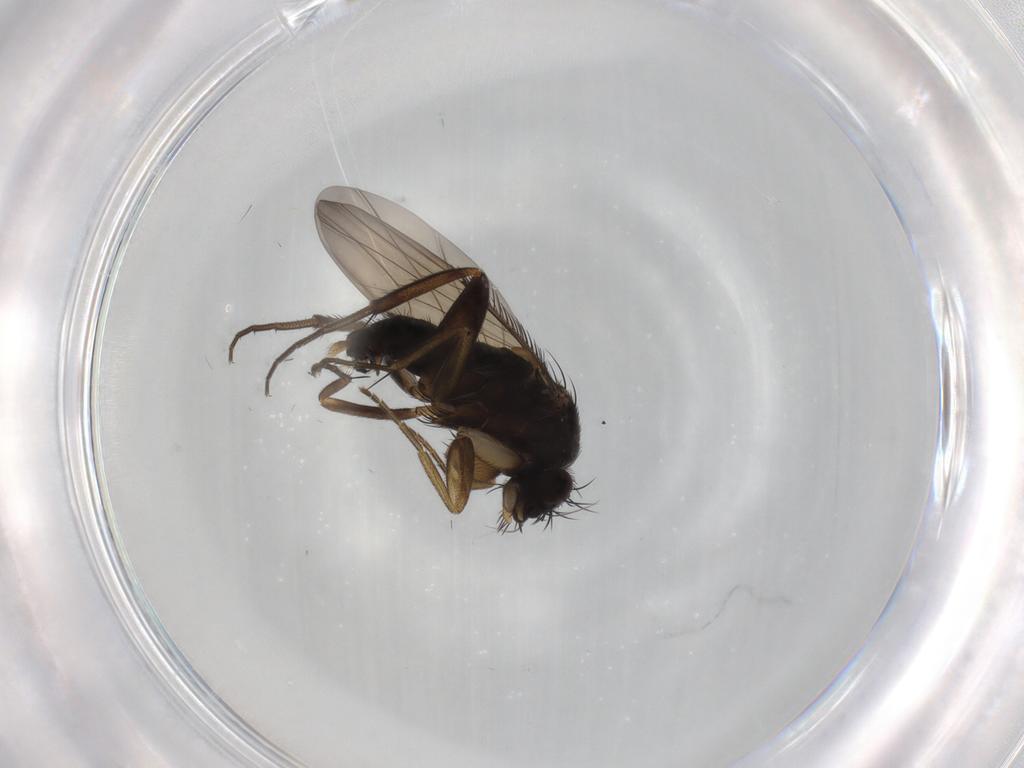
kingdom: Animalia
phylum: Arthropoda
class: Insecta
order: Diptera
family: Phoridae
